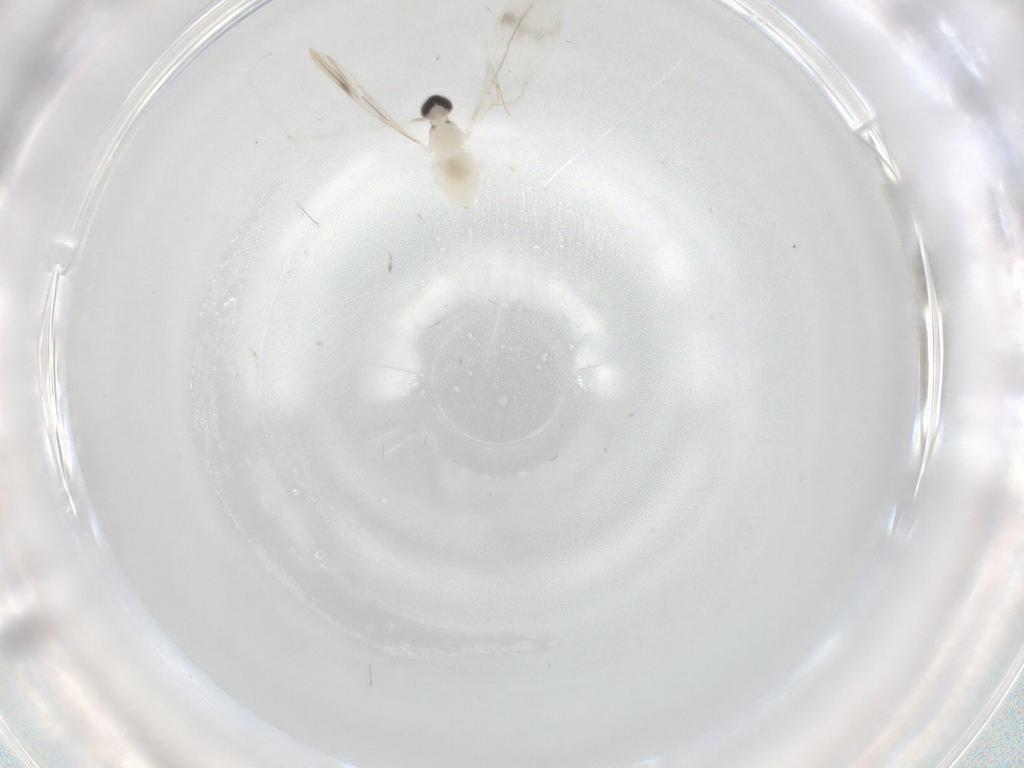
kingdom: Animalia
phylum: Arthropoda
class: Insecta
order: Diptera
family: Cecidomyiidae
